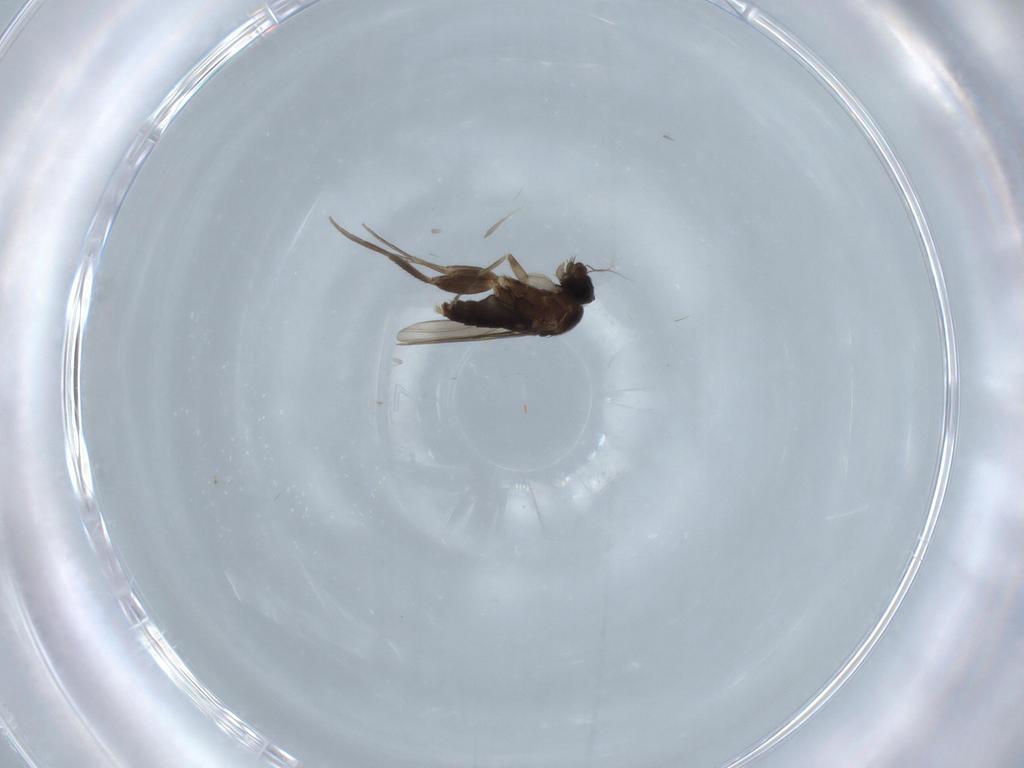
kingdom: Animalia
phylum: Arthropoda
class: Insecta
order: Diptera
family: Phoridae
